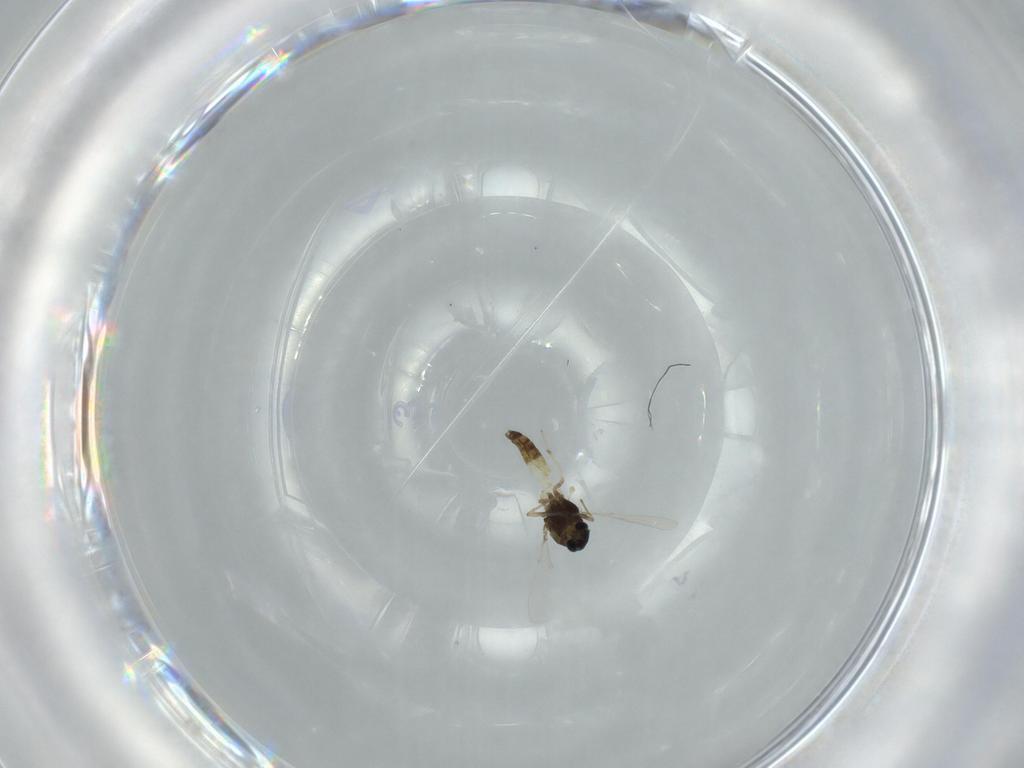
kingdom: Animalia
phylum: Arthropoda
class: Insecta
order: Diptera
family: Chironomidae
